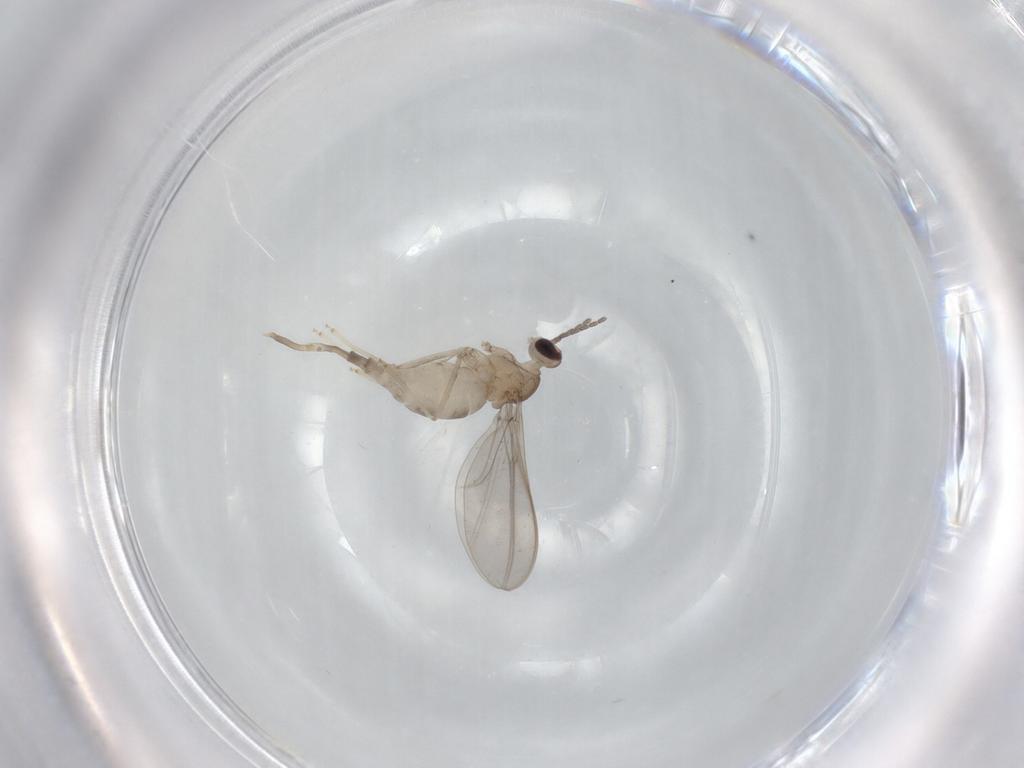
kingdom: Animalia
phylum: Arthropoda
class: Insecta
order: Diptera
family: Cecidomyiidae
